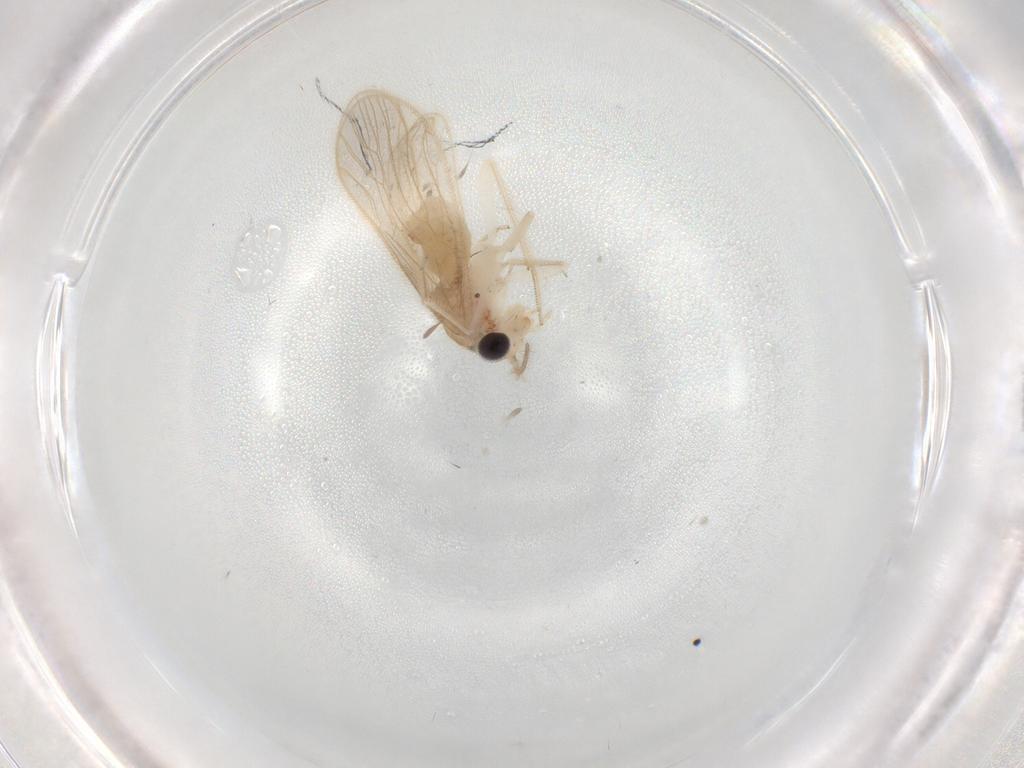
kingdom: Animalia
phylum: Arthropoda
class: Insecta
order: Psocodea
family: Cladiopsocidae
